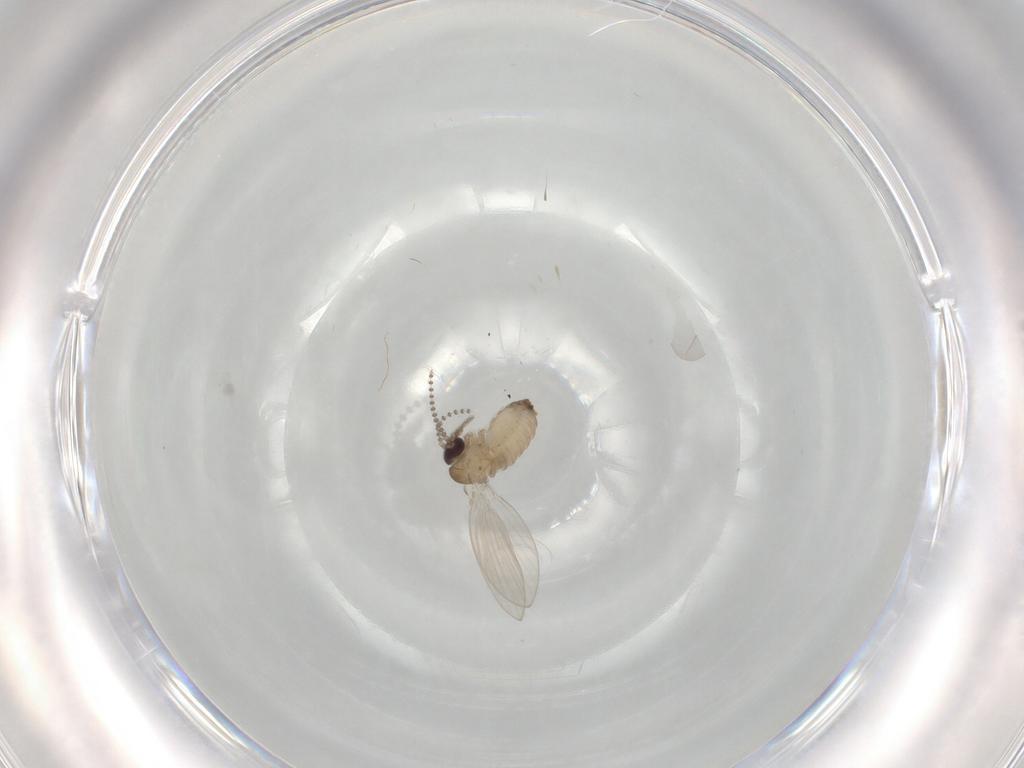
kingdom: Animalia
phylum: Arthropoda
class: Insecta
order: Diptera
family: Psychodidae
